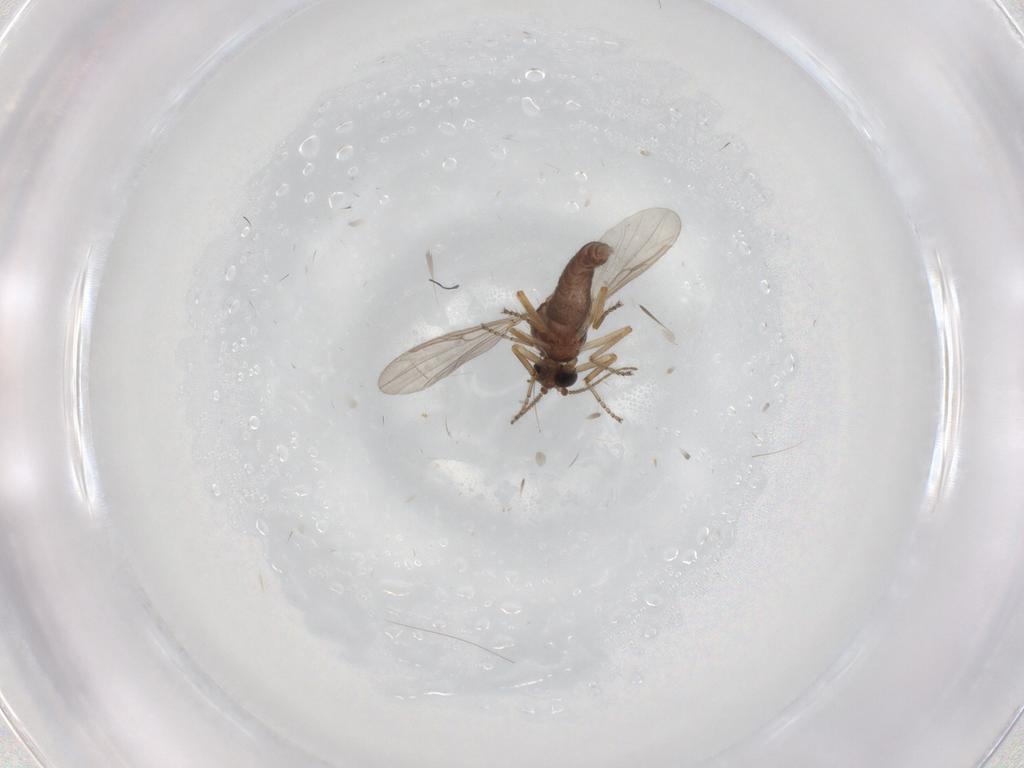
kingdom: Animalia
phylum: Arthropoda
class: Insecta
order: Diptera
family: Ceratopogonidae
